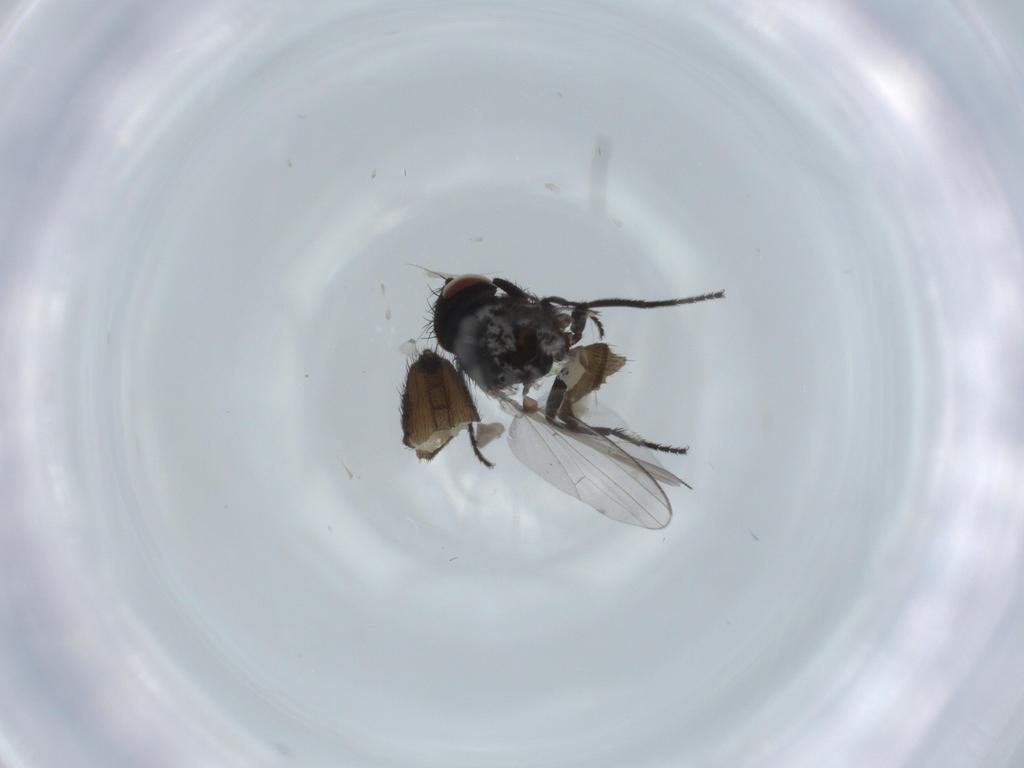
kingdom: Animalia
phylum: Arthropoda
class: Insecta
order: Diptera
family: Milichiidae
